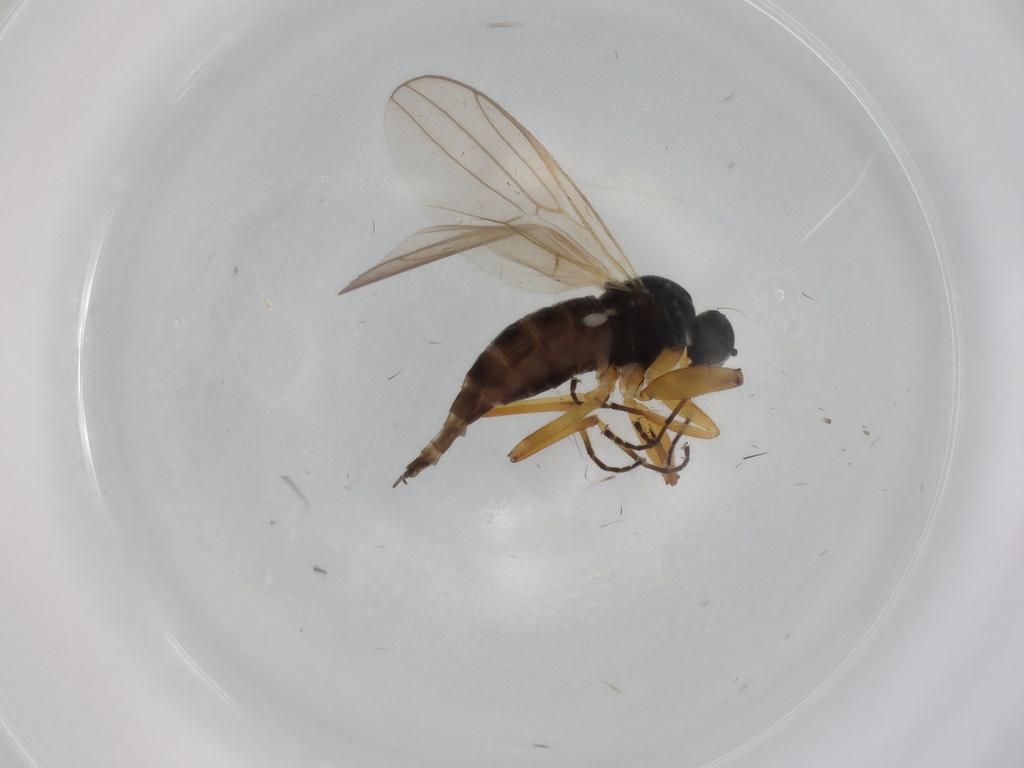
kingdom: Animalia
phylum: Arthropoda
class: Insecta
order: Diptera
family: Hybotidae
